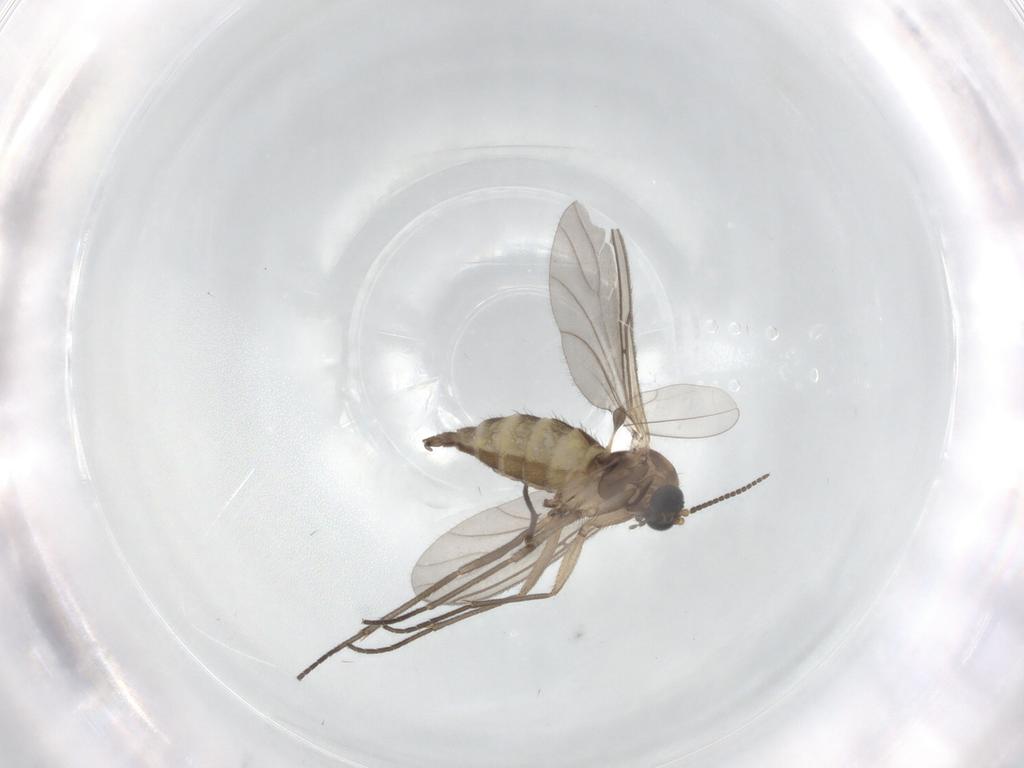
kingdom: Animalia
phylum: Arthropoda
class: Insecta
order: Diptera
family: Sciaridae
